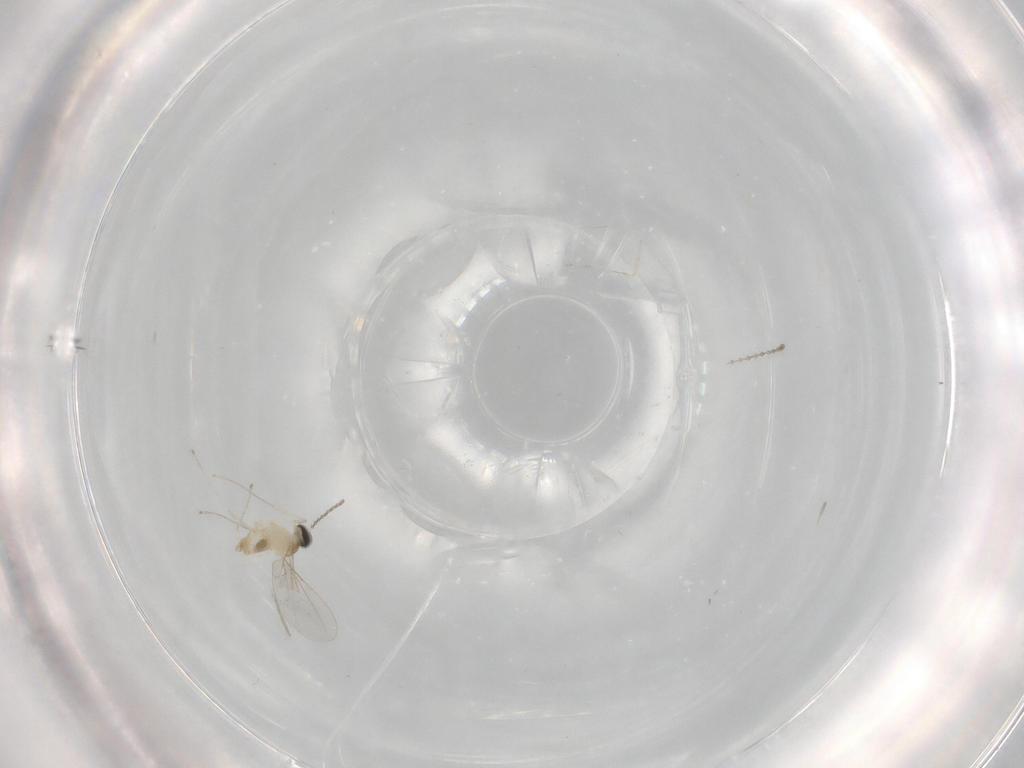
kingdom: Animalia
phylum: Arthropoda
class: Insecta
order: Diptera
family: Cecidomyiidae
